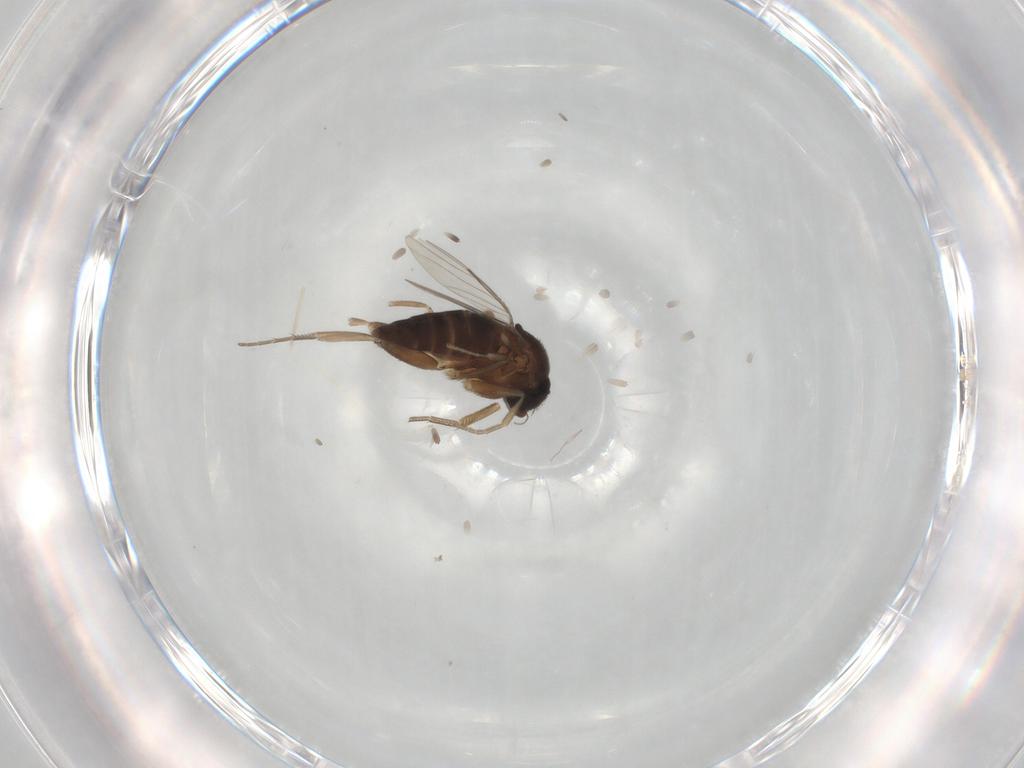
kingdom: Animalia
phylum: Arthropoda
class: Insecta
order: Diptera
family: Phoridae
